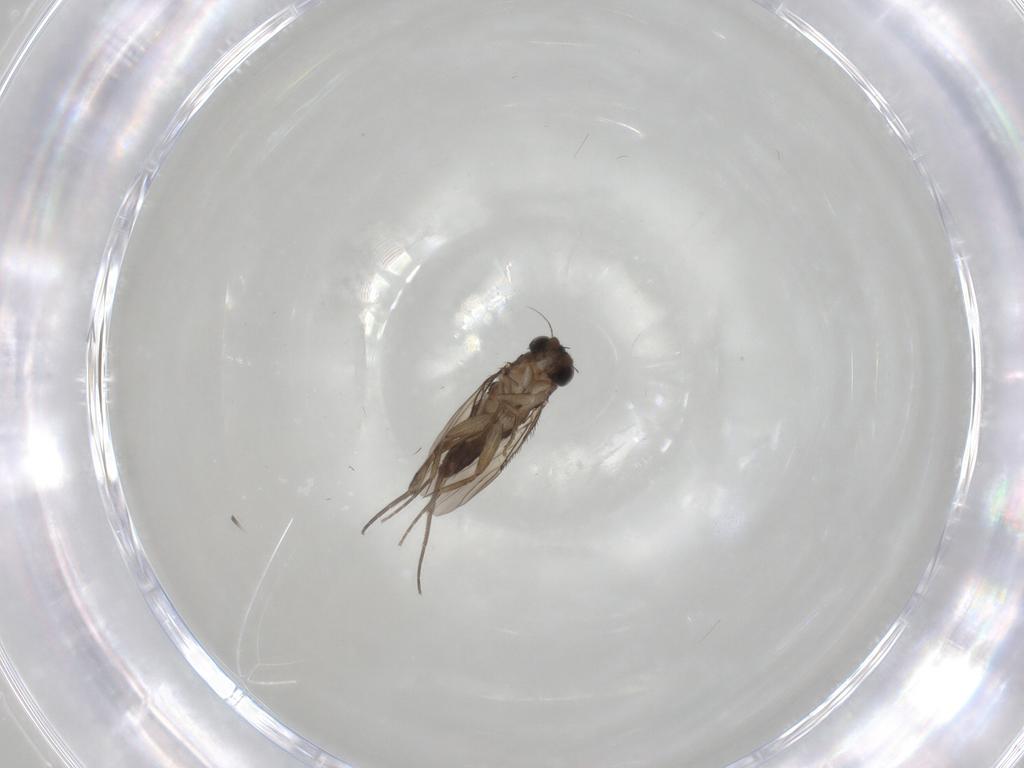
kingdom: Animalia
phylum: Arthropoda
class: Insecta
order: Diptera
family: Phoridae
